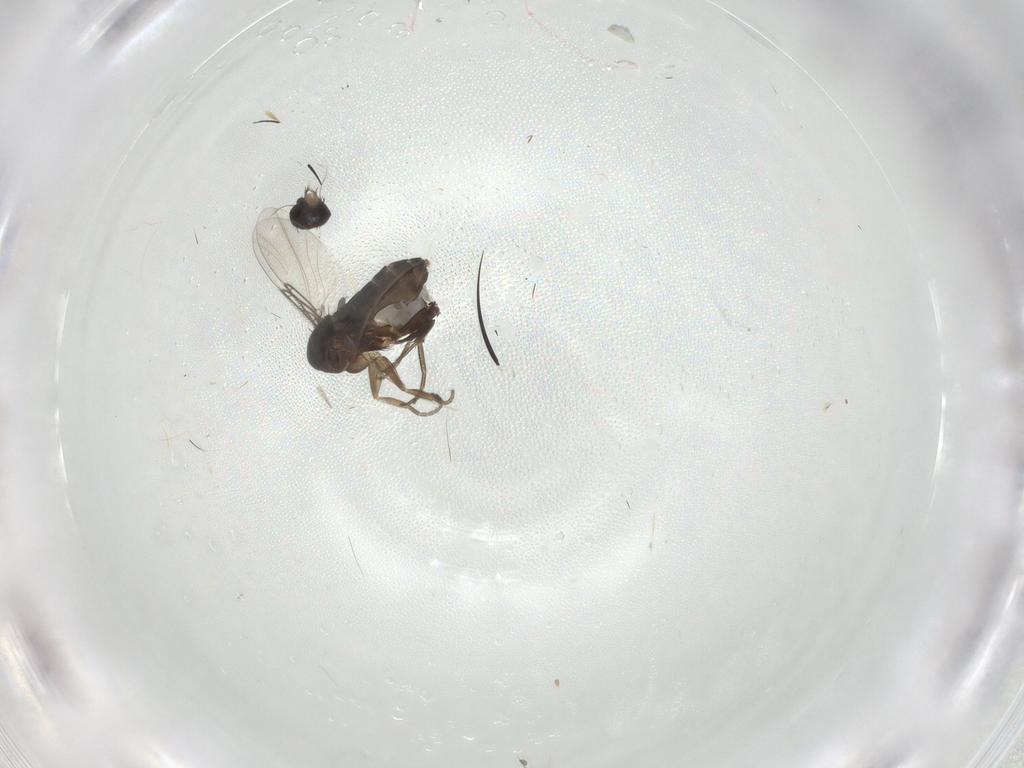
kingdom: Animalia
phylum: Arthropoda
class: Insecta
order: Diptera
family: Phoridae
